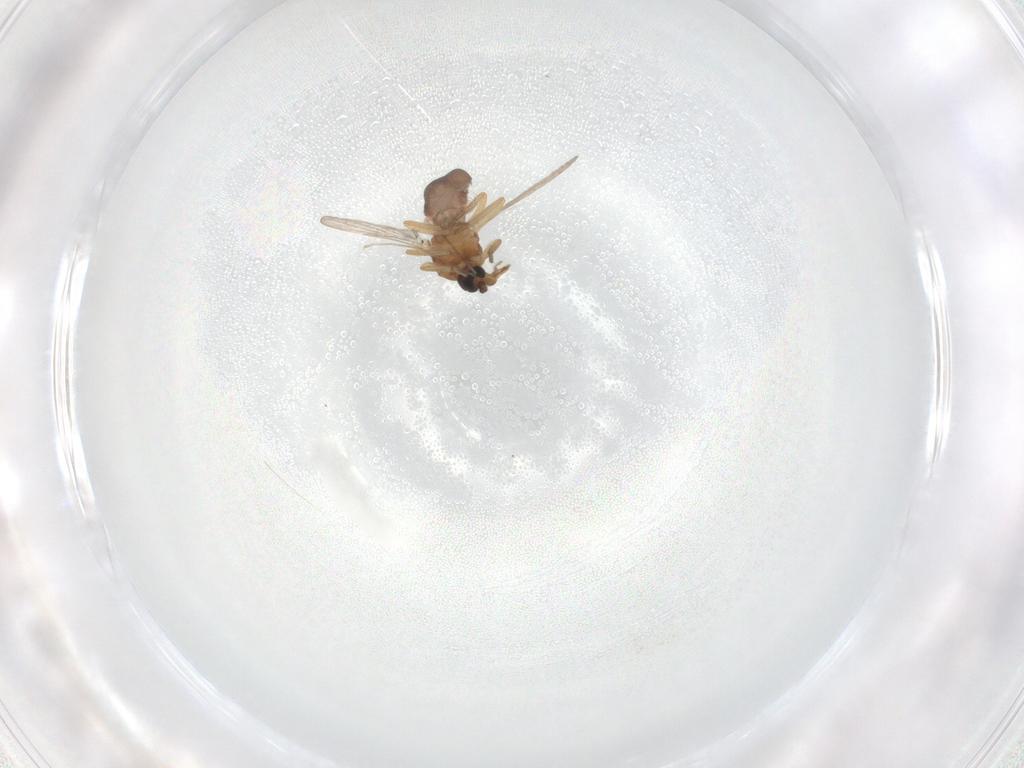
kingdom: Animalia
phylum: Arthropoda
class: Insecta
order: Diptera
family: Ceratopogonidae
